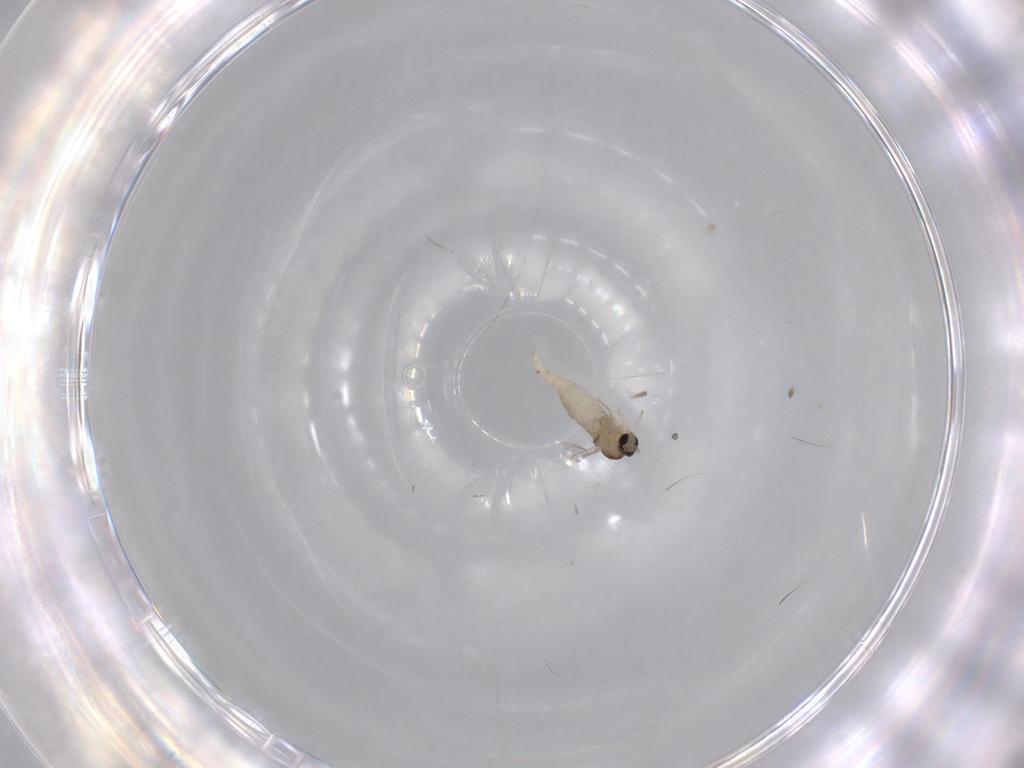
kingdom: Animalia
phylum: Arthropoda
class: Insecta
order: Diptera
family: Cecidomyiidae
